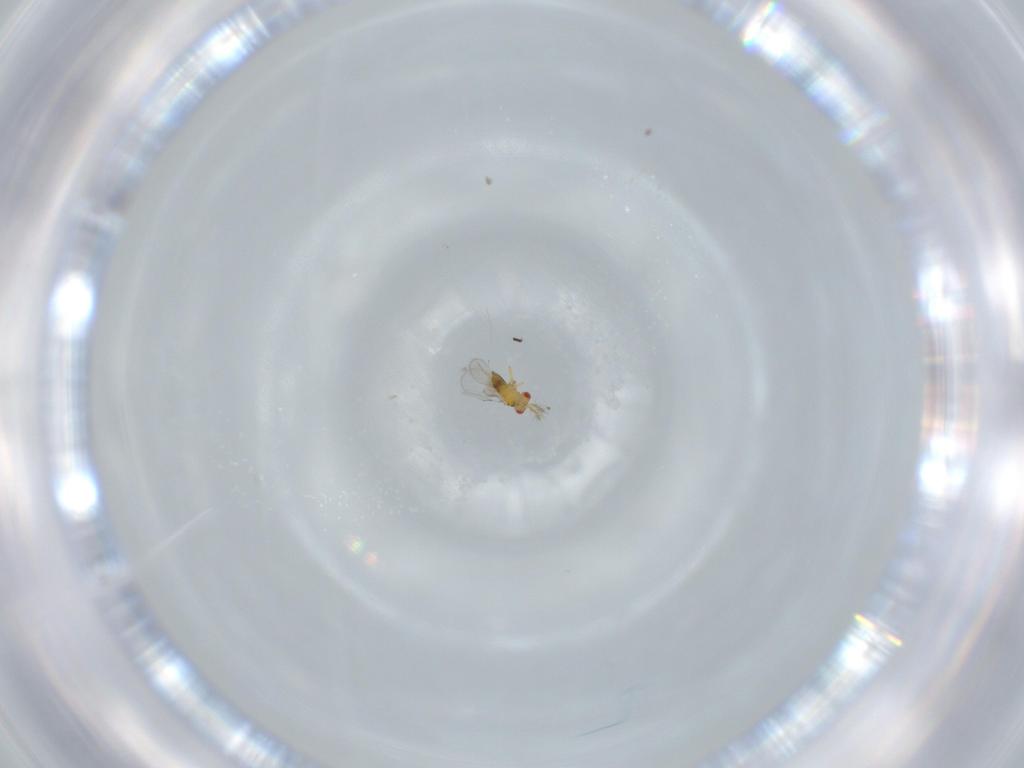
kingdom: Animalia
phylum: Arthropoda
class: Insecta
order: Hymenoptera
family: Trichogrammatidae
